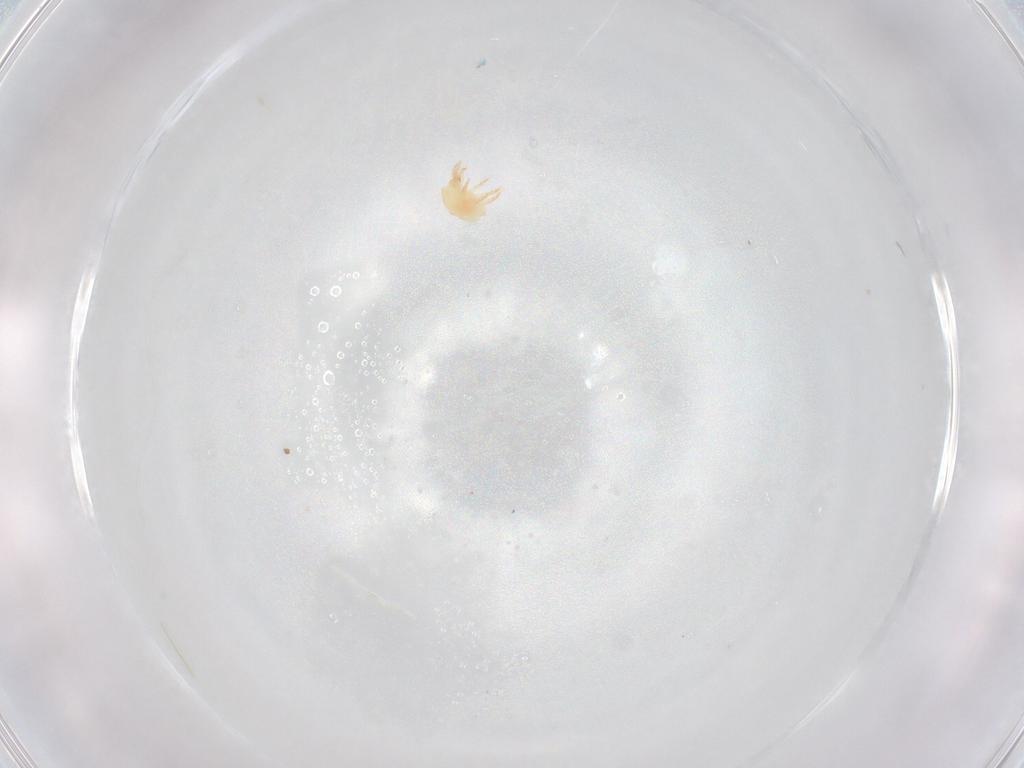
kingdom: Animalia
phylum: Arthropoda
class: Arachnida
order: Trombidiformes
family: Stigmaeidae
